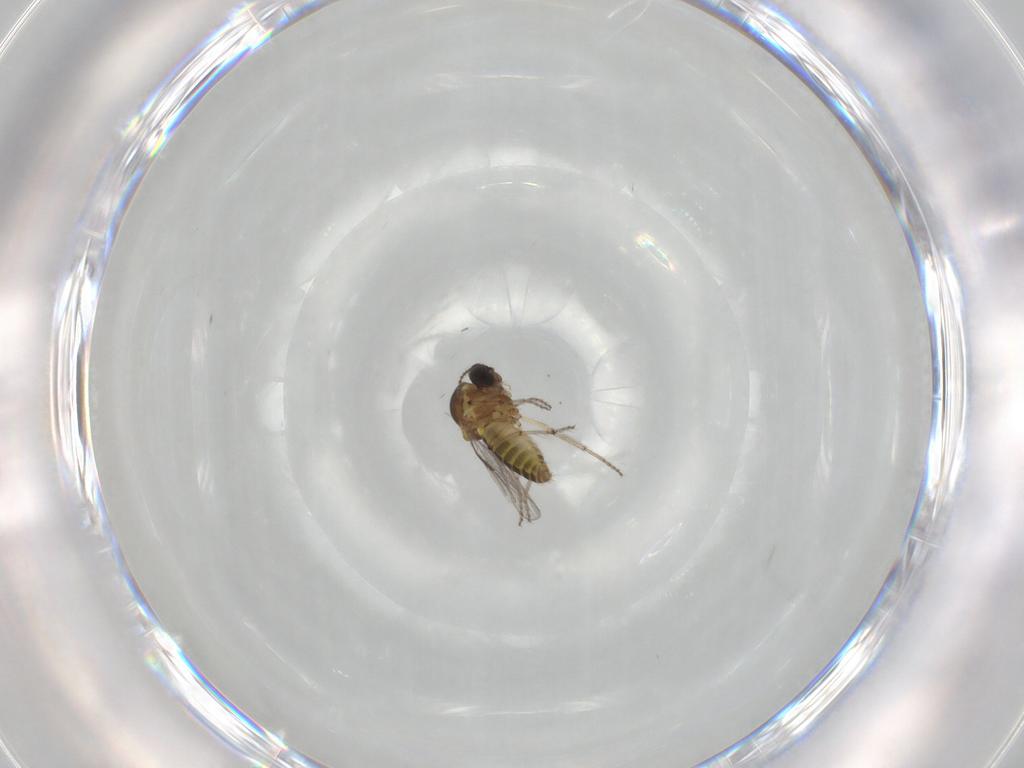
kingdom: Animalia
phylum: Arthropoda
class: Insecta
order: Diptera
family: Ceratopogonidae
